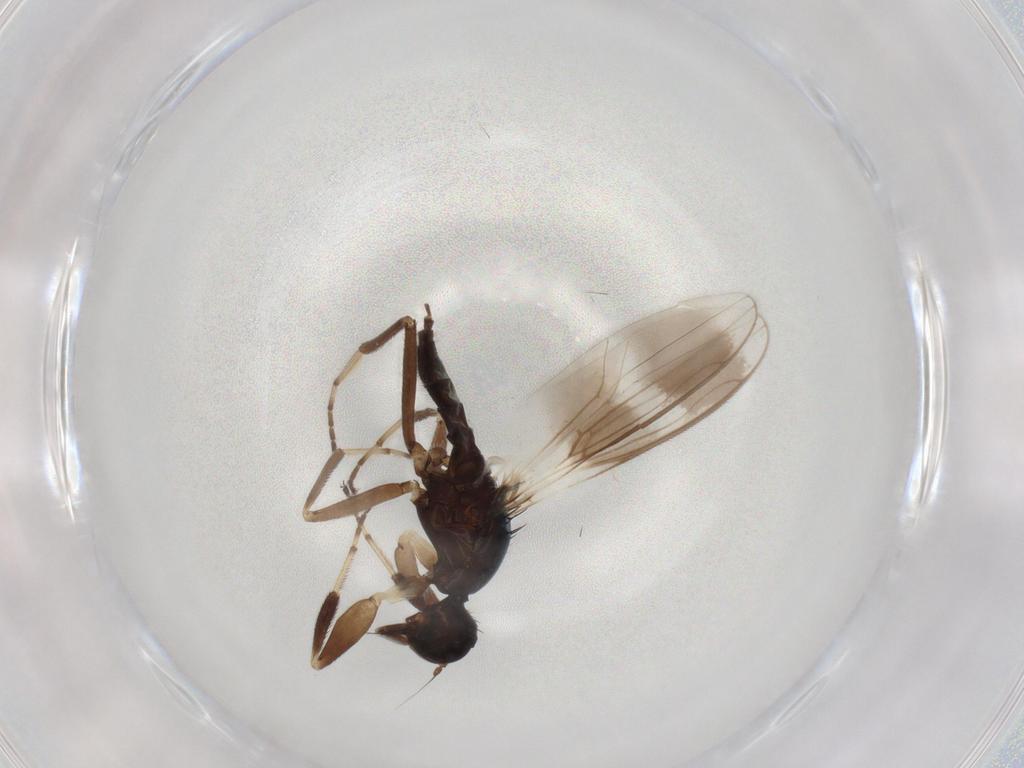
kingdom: Animalia
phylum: Arthropoda
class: Insecta
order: Diptera
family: Hybotidae
